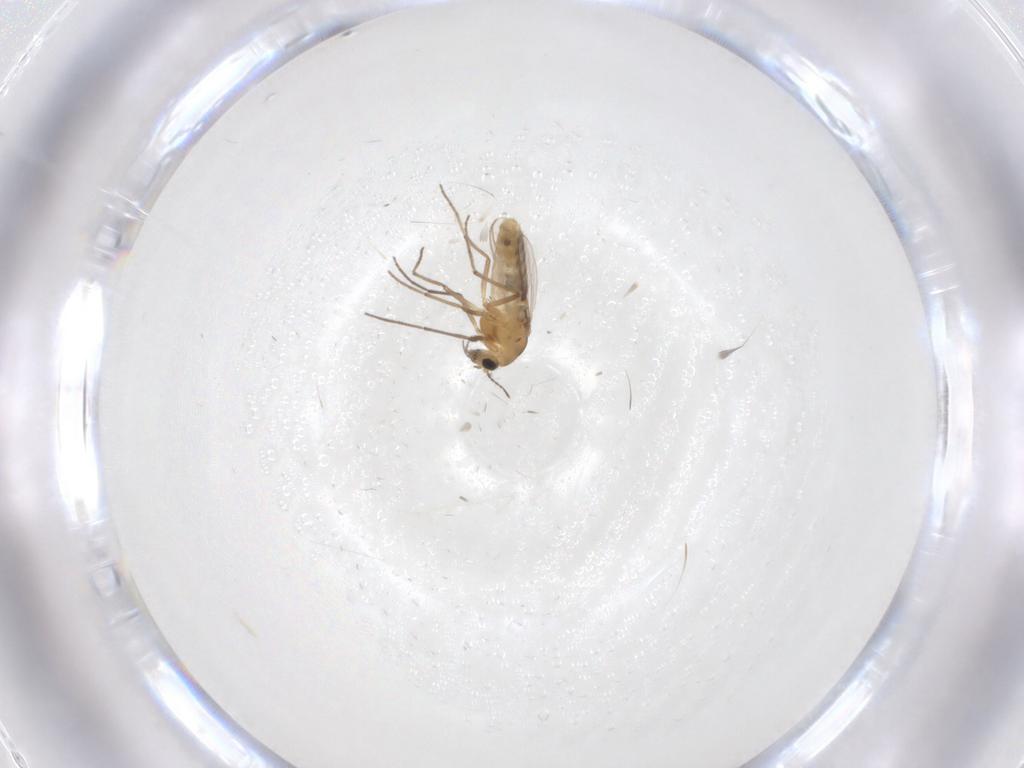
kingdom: Animalia
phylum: Arthropoda
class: Insecta
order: Diptera
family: Chironomidae
